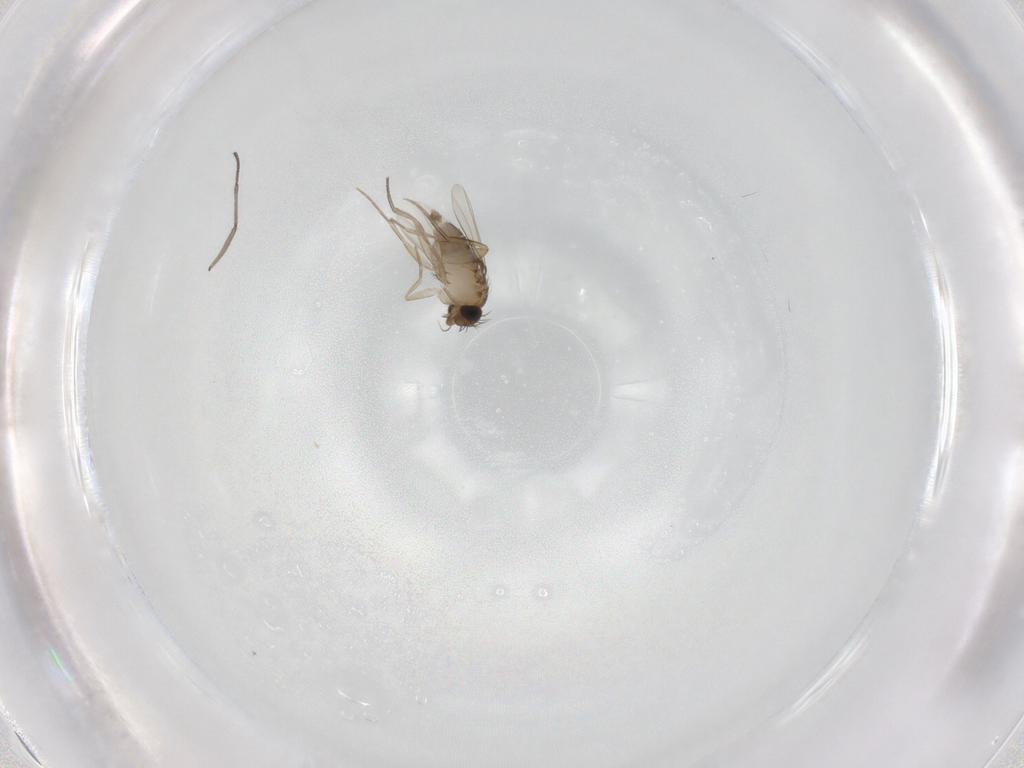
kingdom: Animalia
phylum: Arthropoda
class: Insecta
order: Diptera
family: Phoridae
